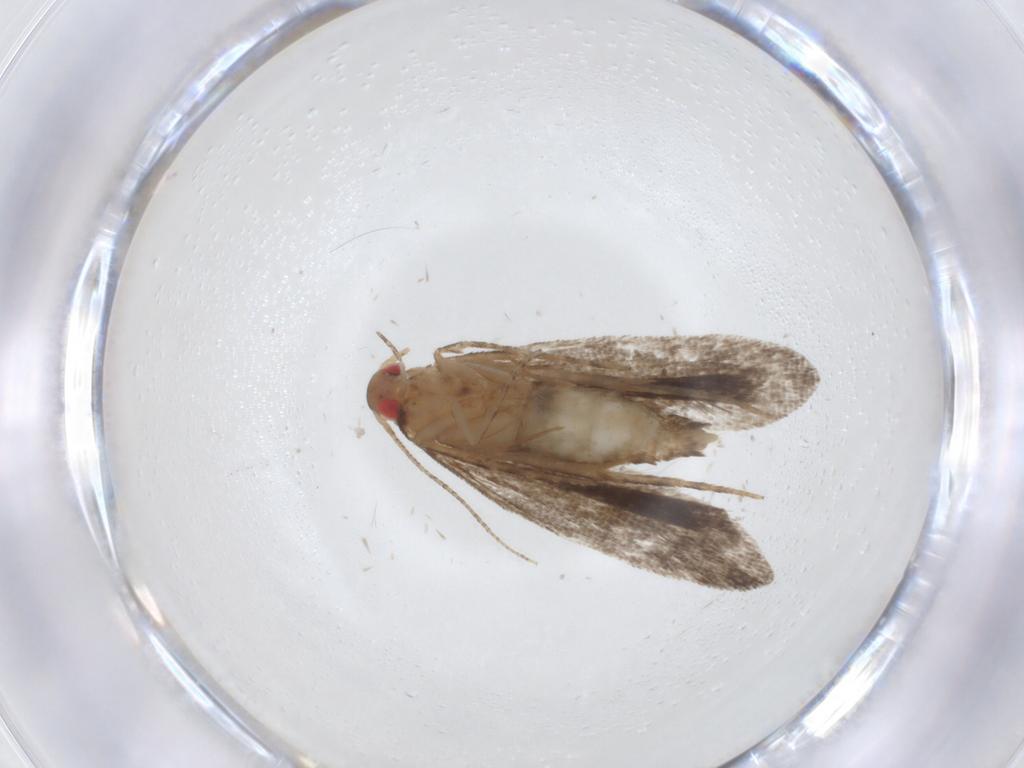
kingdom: Animalia
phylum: Arthropoda
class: Insecta
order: Lepidoptera
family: Gelechiidae
